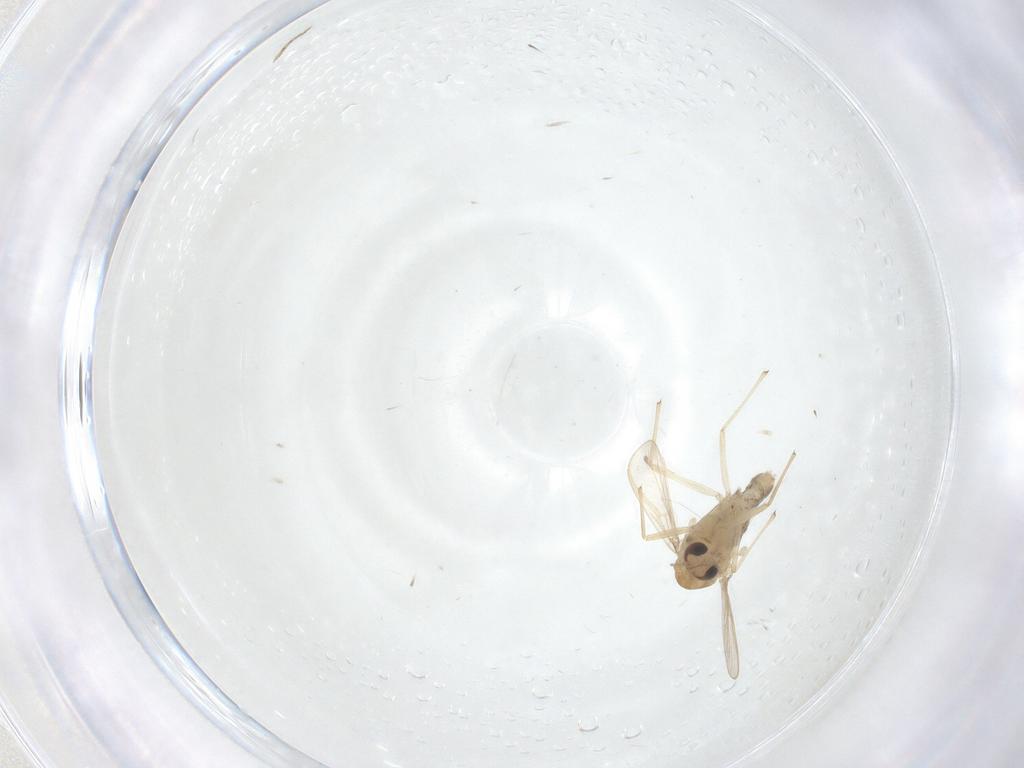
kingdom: Animalia
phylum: Arthropoda
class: Insecta
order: Diptera
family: Chironomidae
